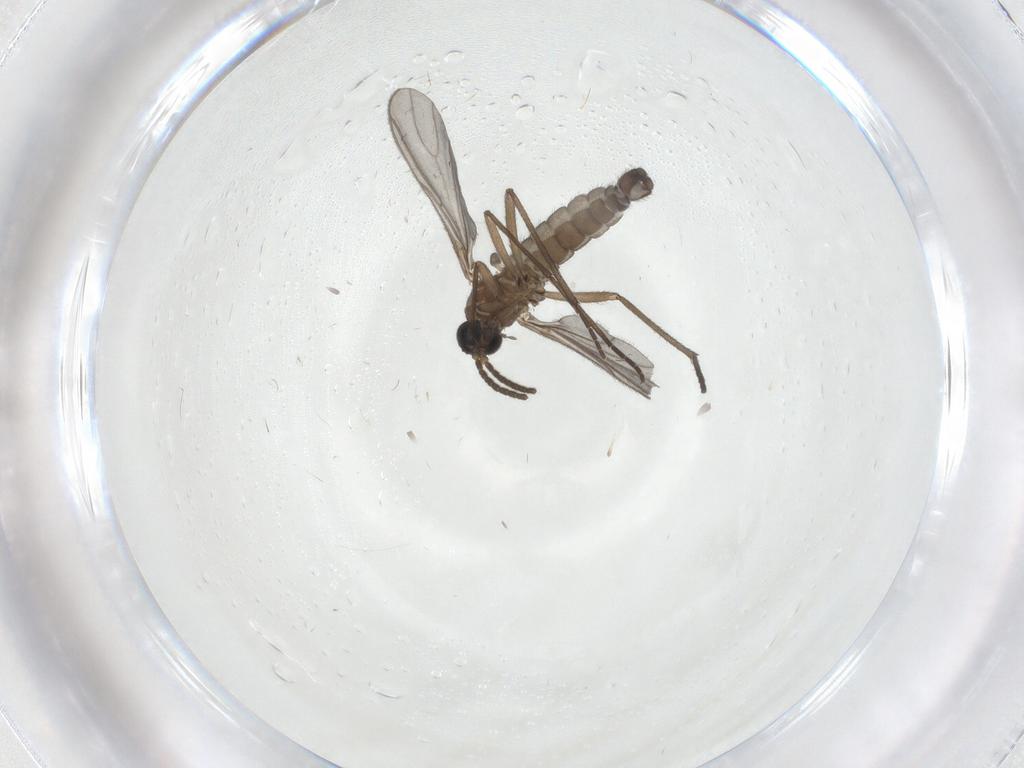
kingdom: Animalia
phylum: Arthropoda
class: Insecta
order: Diptera
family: Sciaridae
